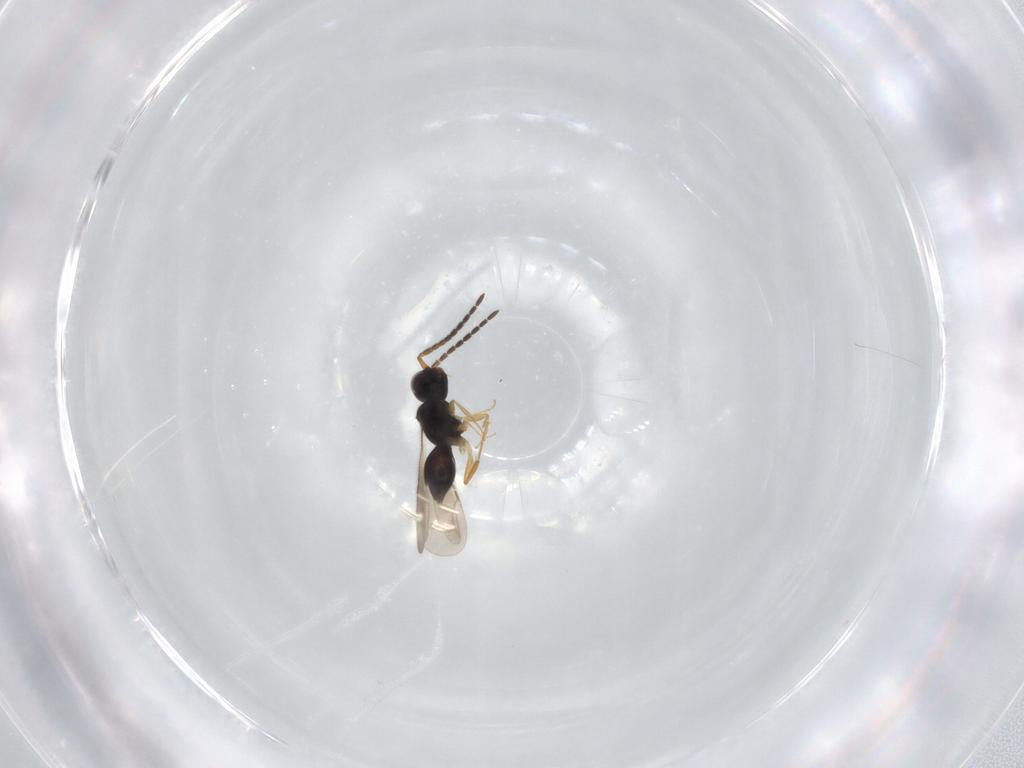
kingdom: Animalia
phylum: Arthropoda
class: Insecta
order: Hymenoptera
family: Ceraphronidae
